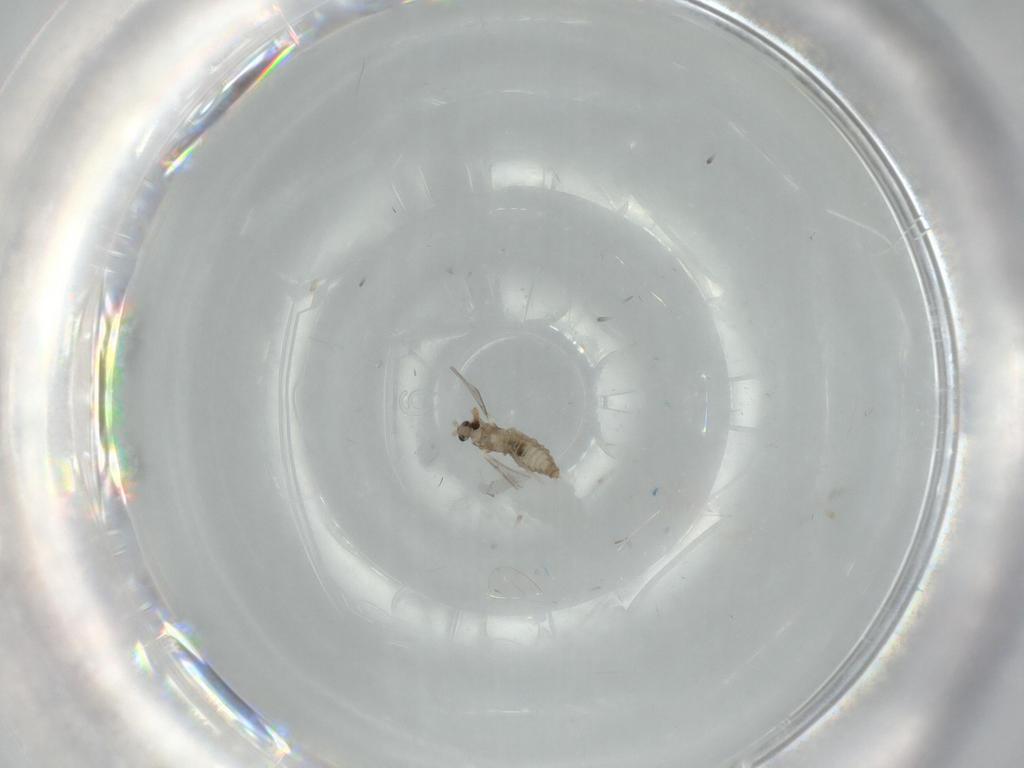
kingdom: Animalia
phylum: Arthropoda
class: Insecta
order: Diptera
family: Cecidomyiidae
